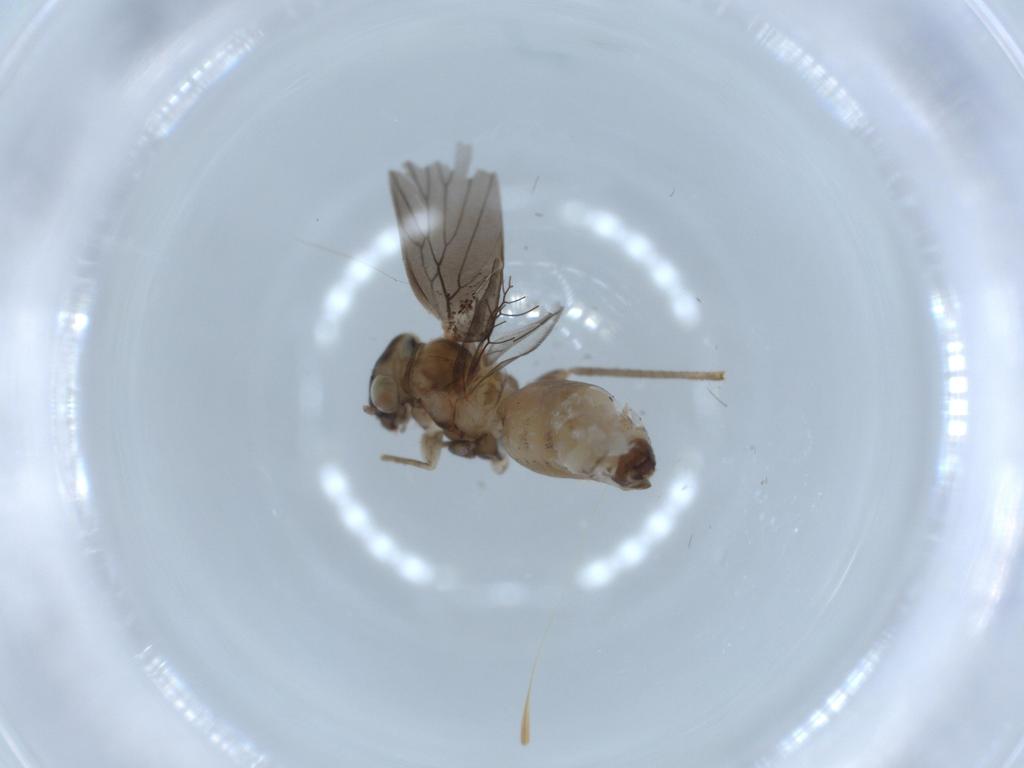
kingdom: Animalia
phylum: Arthropoda
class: Insecta
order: Psocodea
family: Lepidopsocidae
